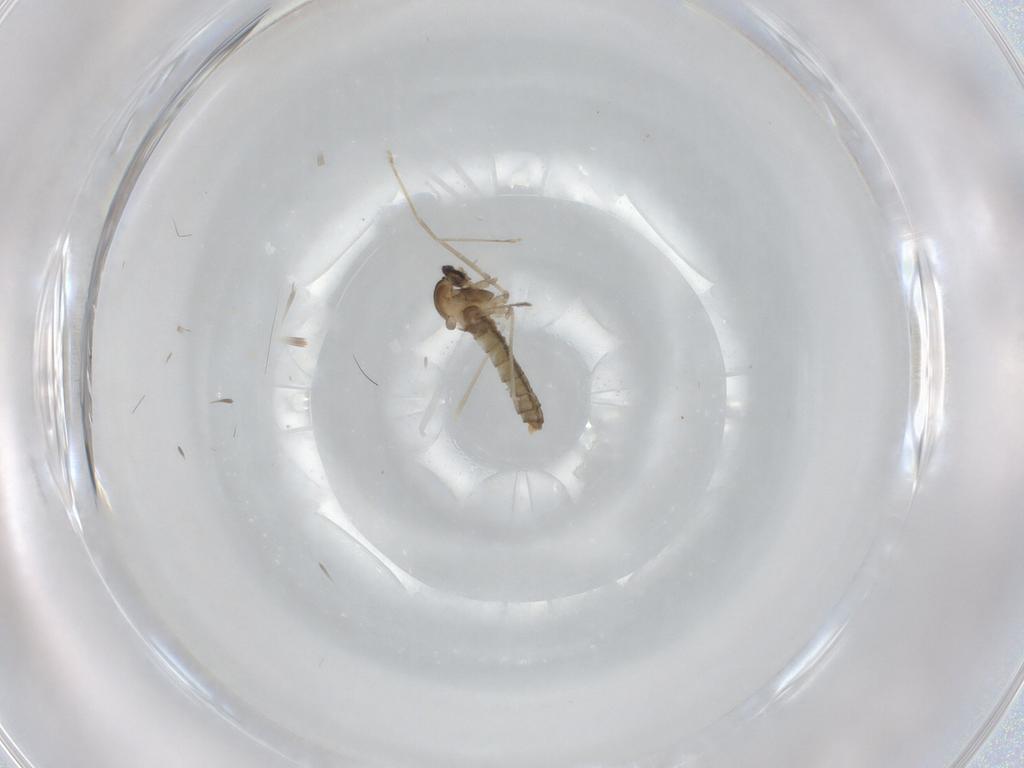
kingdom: Animalia
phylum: Arthropoda
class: Insecta
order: Diptera
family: Cecidomyiidae
